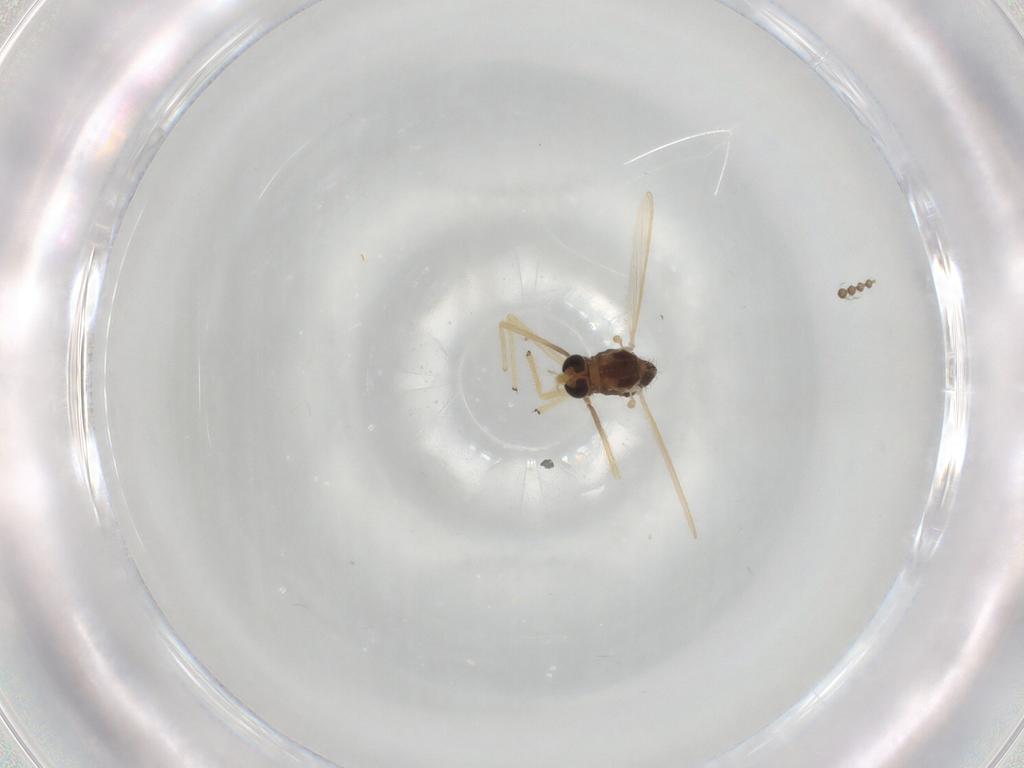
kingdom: Animalia
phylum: Arthropoda
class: Insecta
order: Diptera
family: Chironomidae
